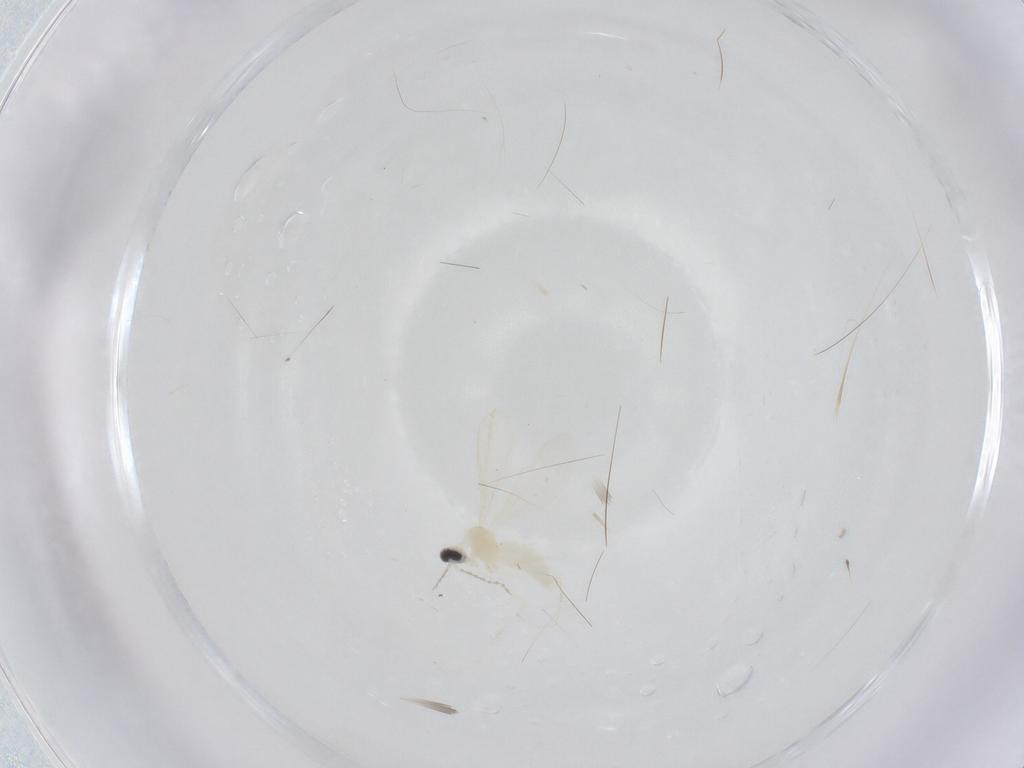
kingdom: Animalia
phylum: Arthropoda
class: Insecta
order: Diptera
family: Cecidomyiidae
